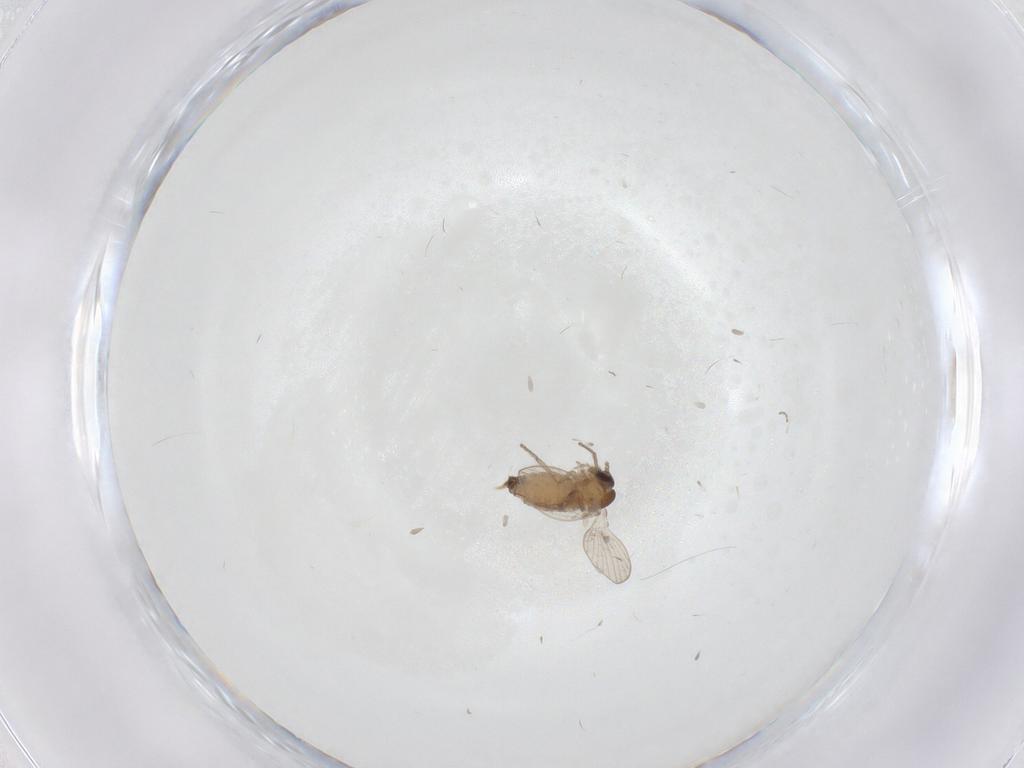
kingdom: Animalia
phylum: Arthropoda
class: Insecta
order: Diptera
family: Psychodidae
